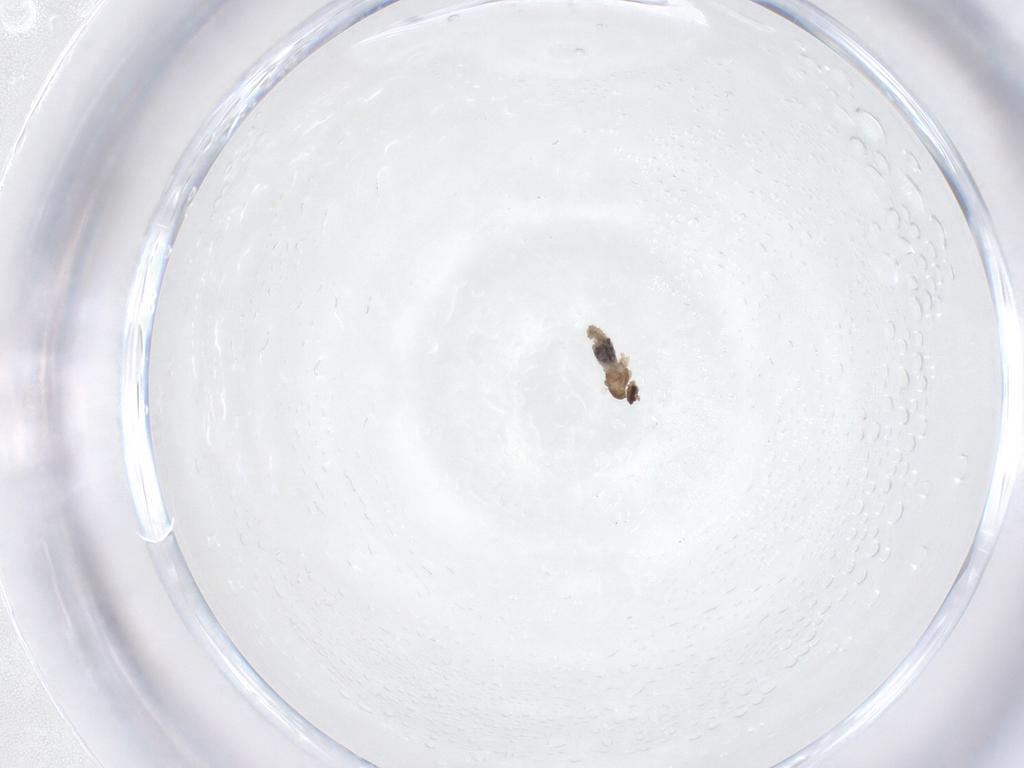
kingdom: Animalia
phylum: Arthropoda
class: Insecta
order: Diptera
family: Cecidomyiidae
